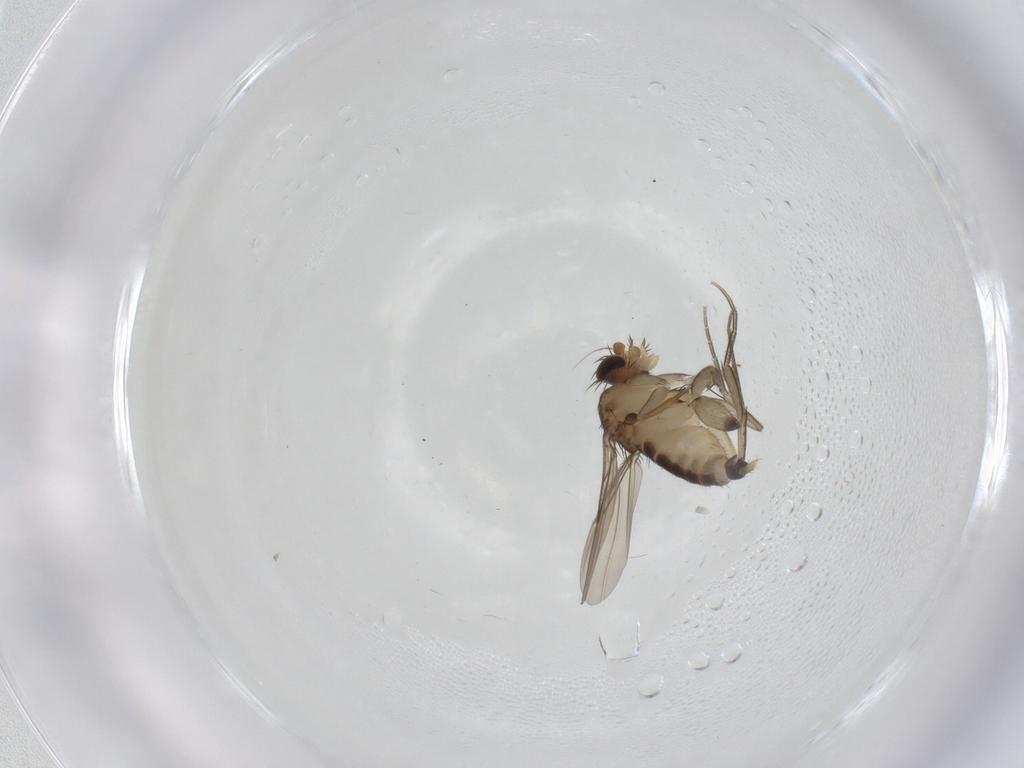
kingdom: Animalia
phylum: Arthropoda
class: Insecta
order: Diptera
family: Phoridae
